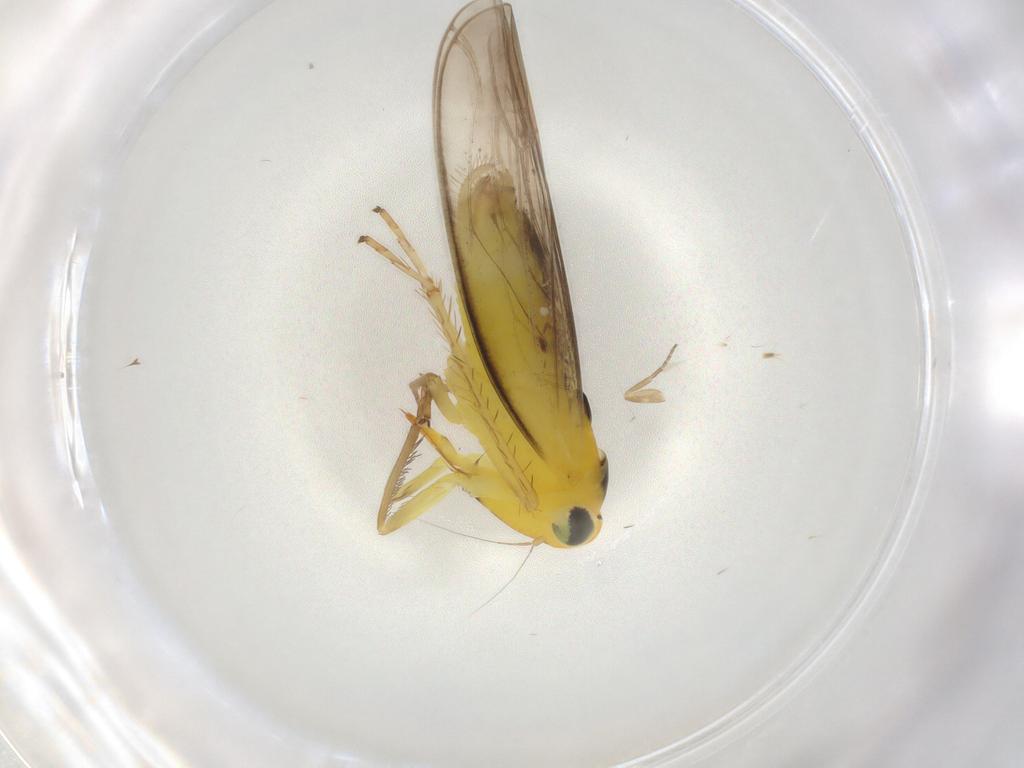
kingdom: Animalia
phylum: Arthropoda
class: Insecta
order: Hemiptera
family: Cicadellidae
